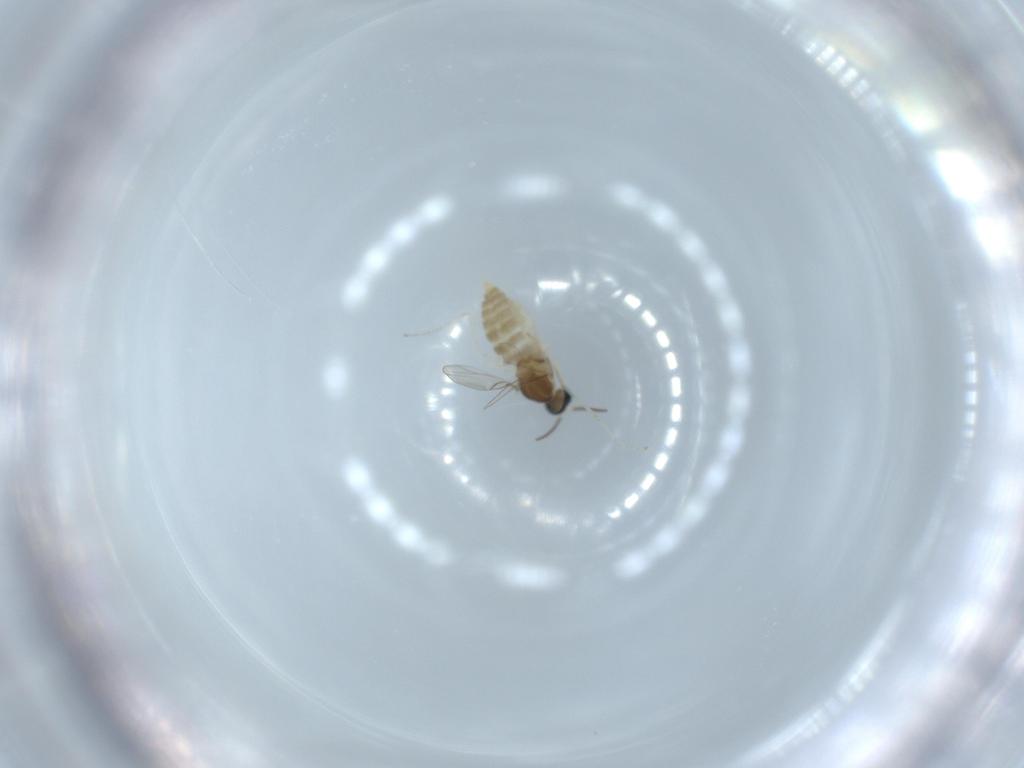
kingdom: Animalia
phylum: Arthropoda
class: Insecta
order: Diptera
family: Cecidomyiidae
